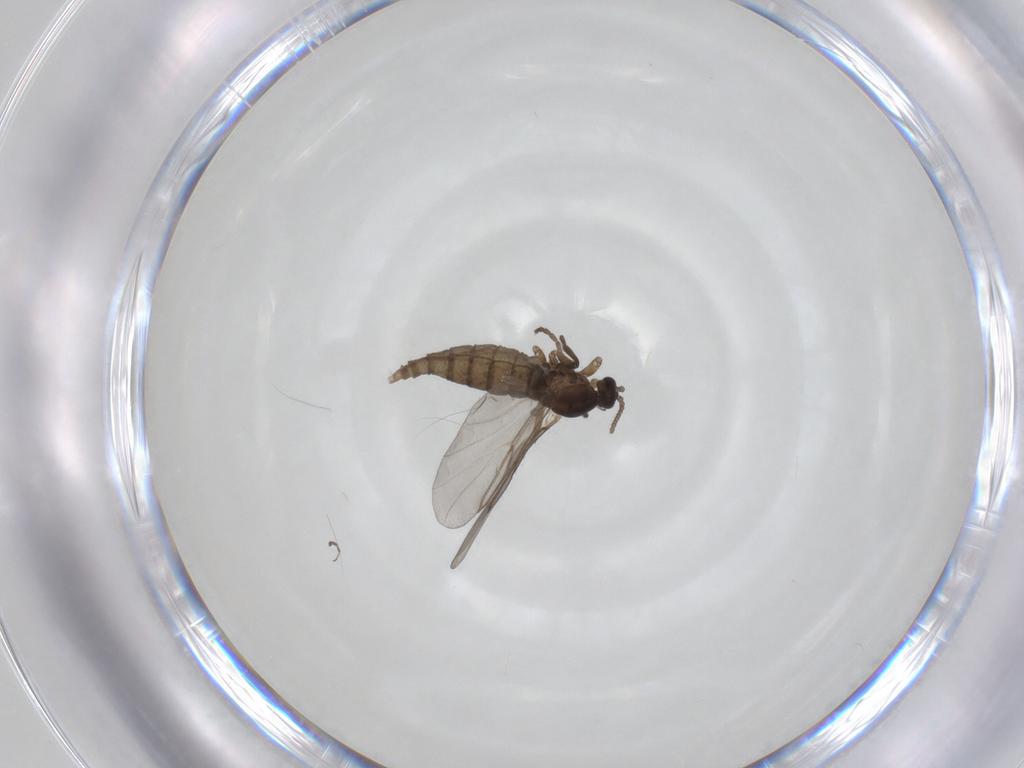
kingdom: Animalia
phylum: Arthropoda
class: Insecta
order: Diptera
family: Cecidomyiidae
